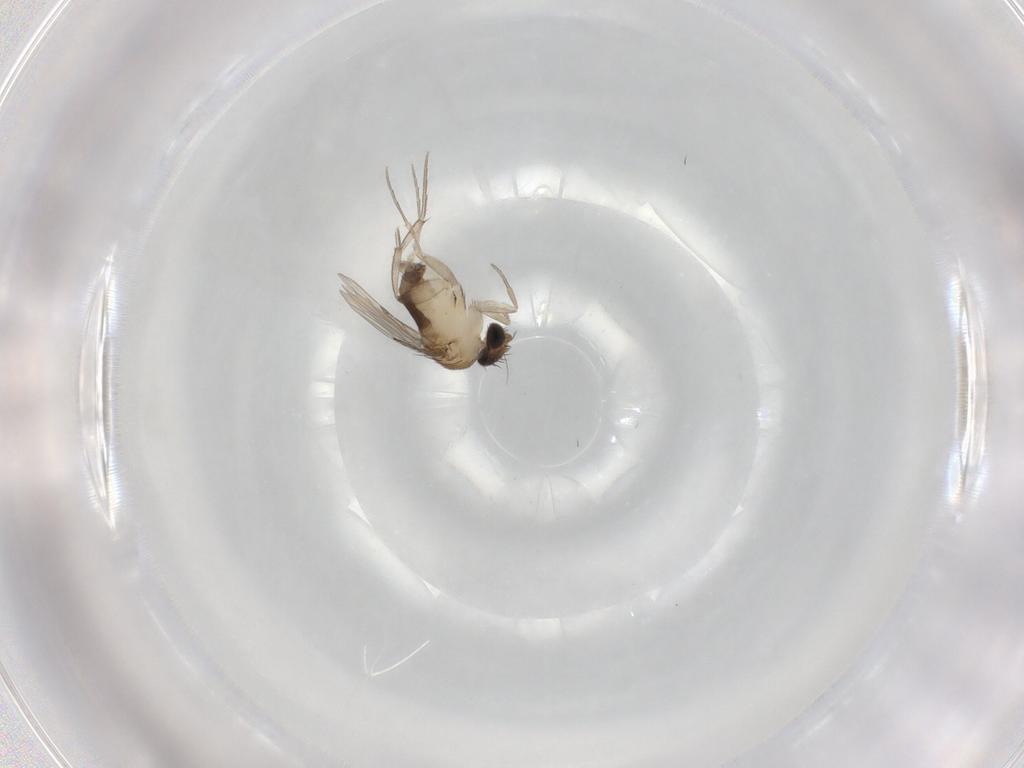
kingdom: Animalia
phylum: Arthropoda
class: Insecta
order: Diptera
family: Phoridae
